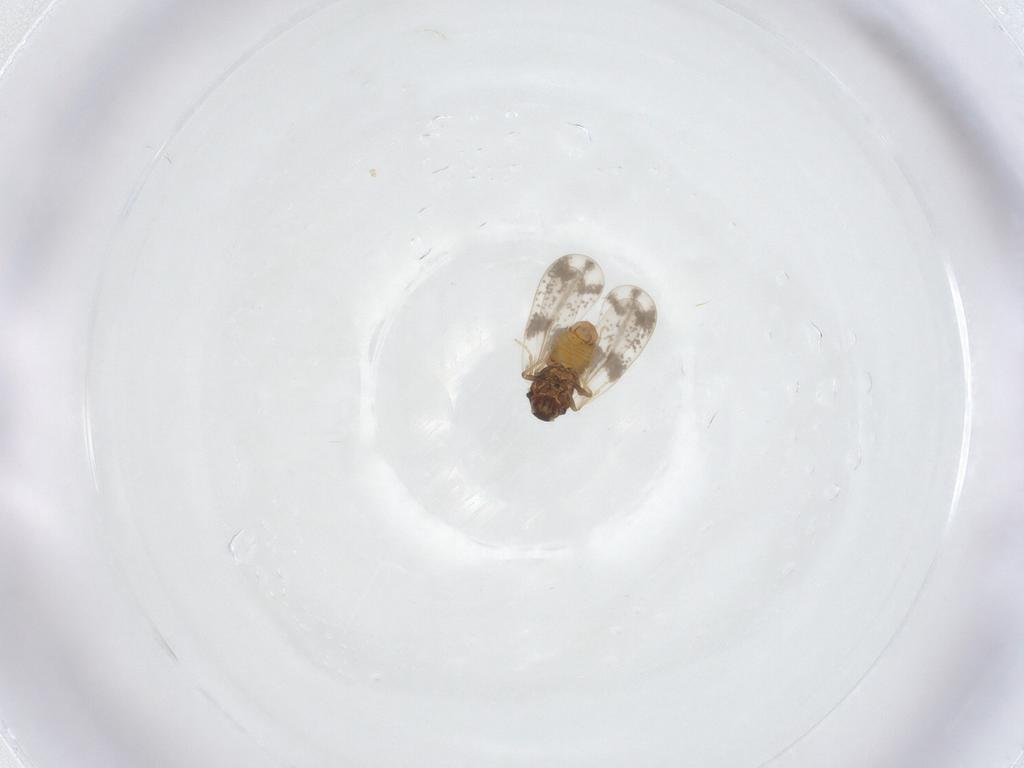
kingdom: Animalia
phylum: Arthropoda
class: Insecta
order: Hemiptera
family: Aleyrodidae
